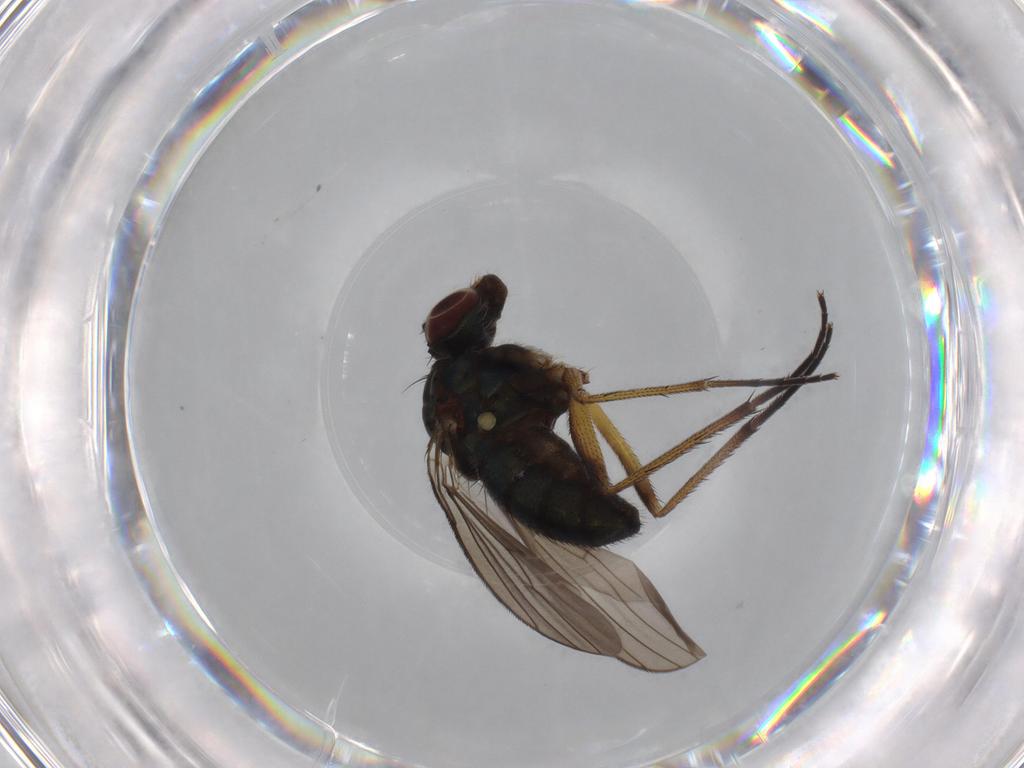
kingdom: Animalia
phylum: Arthropoda
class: Insecta
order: Diptera
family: Dolichopodidae
